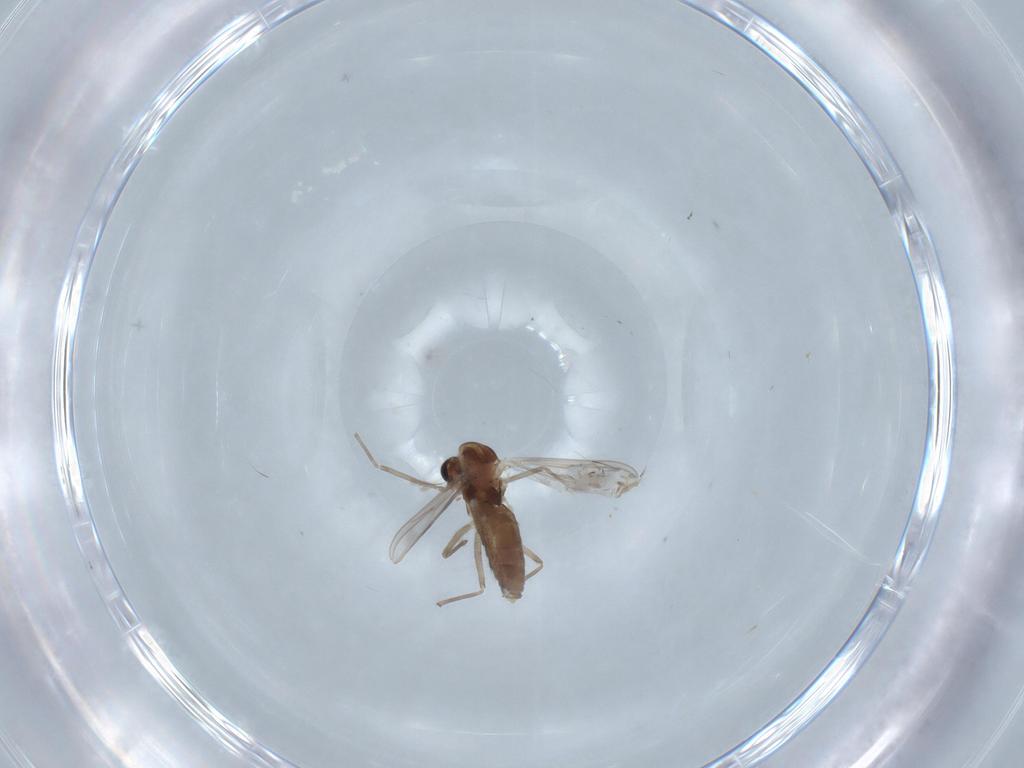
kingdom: Animalia
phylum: Arthropoda
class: Insecta
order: Diptera
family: Chironomidae
